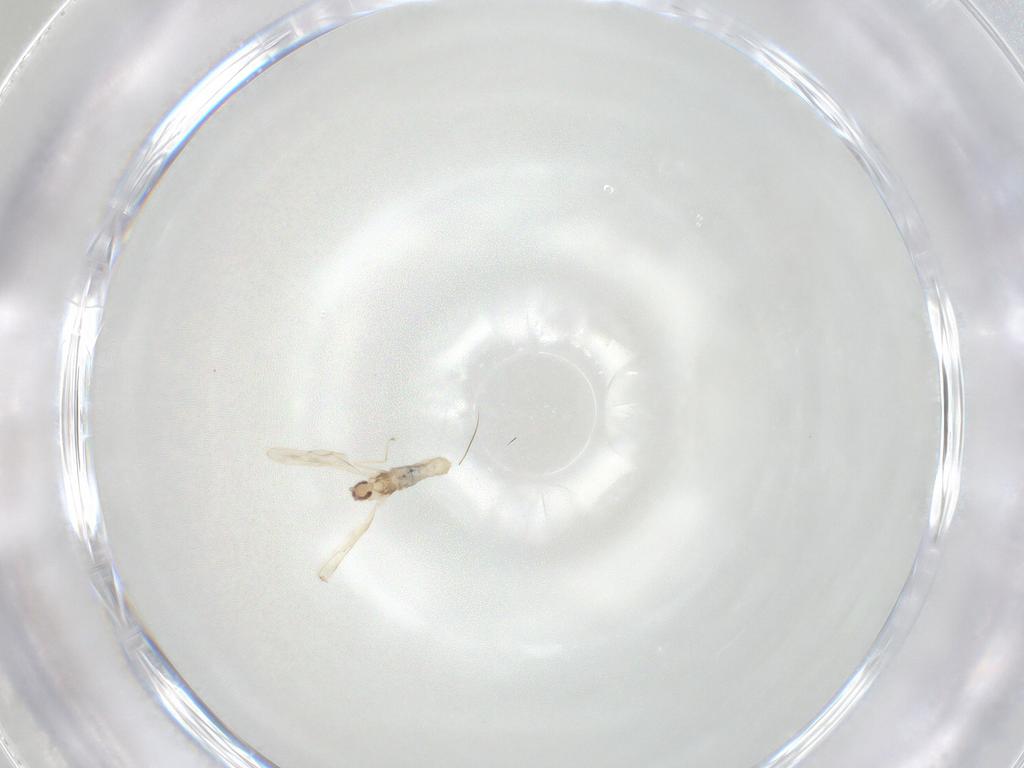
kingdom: Animalia
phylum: Arthropoda
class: Insecta
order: Diptera
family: Cecidomyiidae
